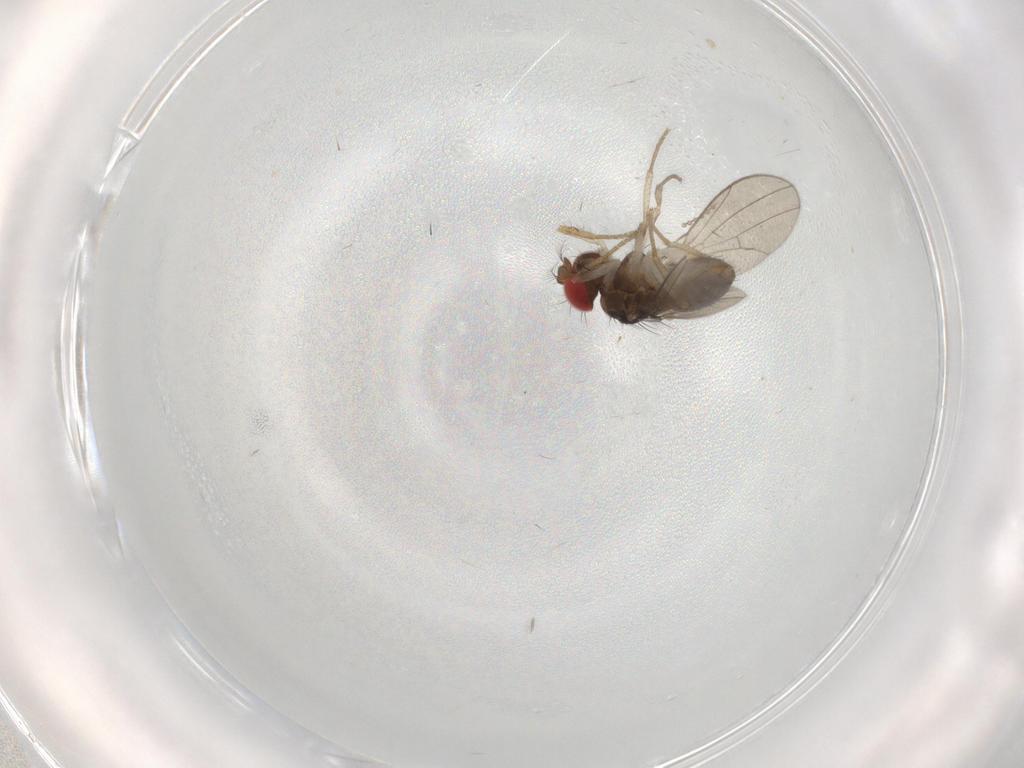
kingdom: Animalia
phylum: Arthropoda
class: Insecta
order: Diptera
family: Drosophilidae
